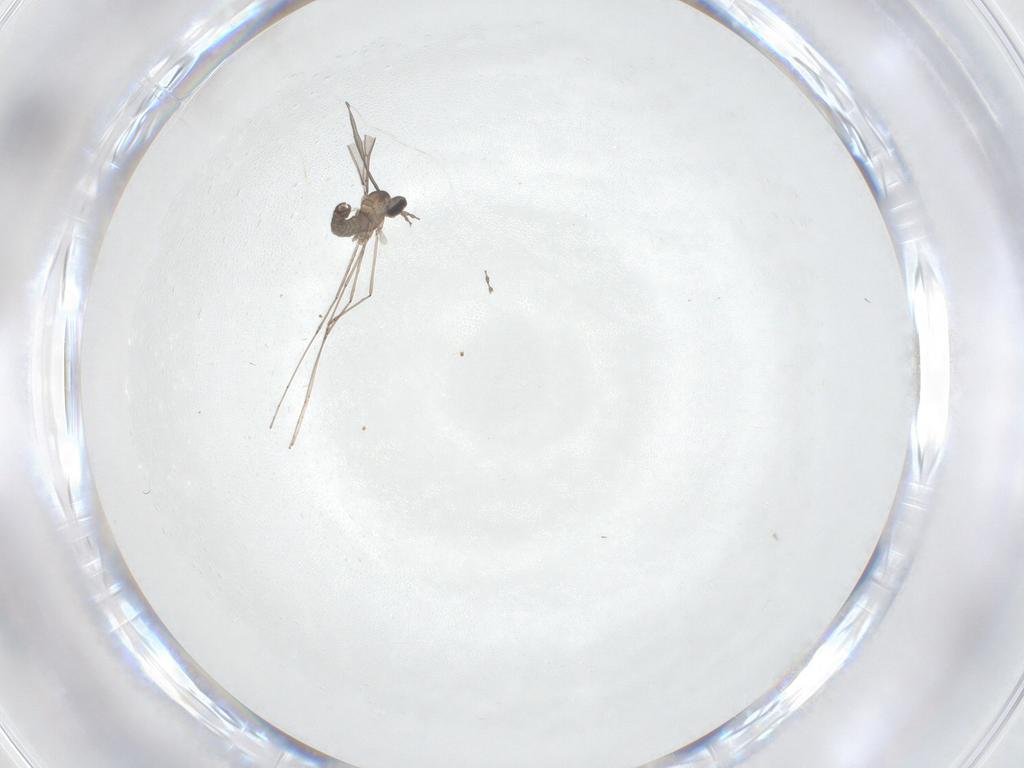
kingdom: Animalia
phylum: Arthropoda
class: Insecta
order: Diptera
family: Cecidomyiidae
